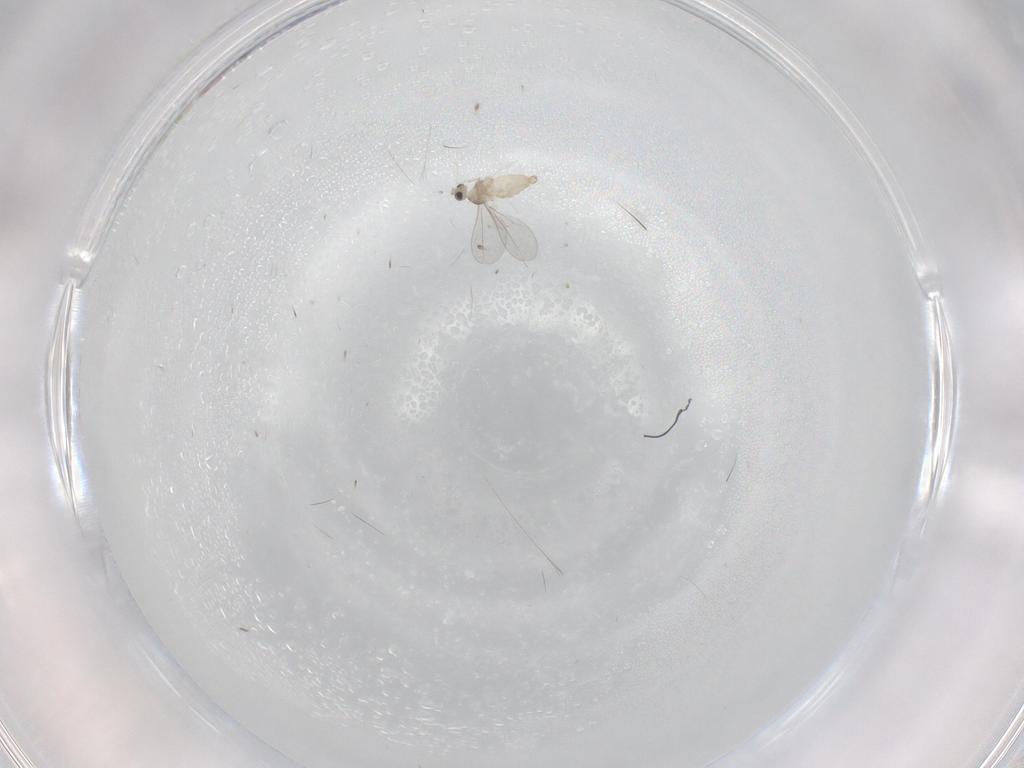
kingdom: Animalia
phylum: Arthropoda
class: Insecta
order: Diptera
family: Cecidomyiidae
